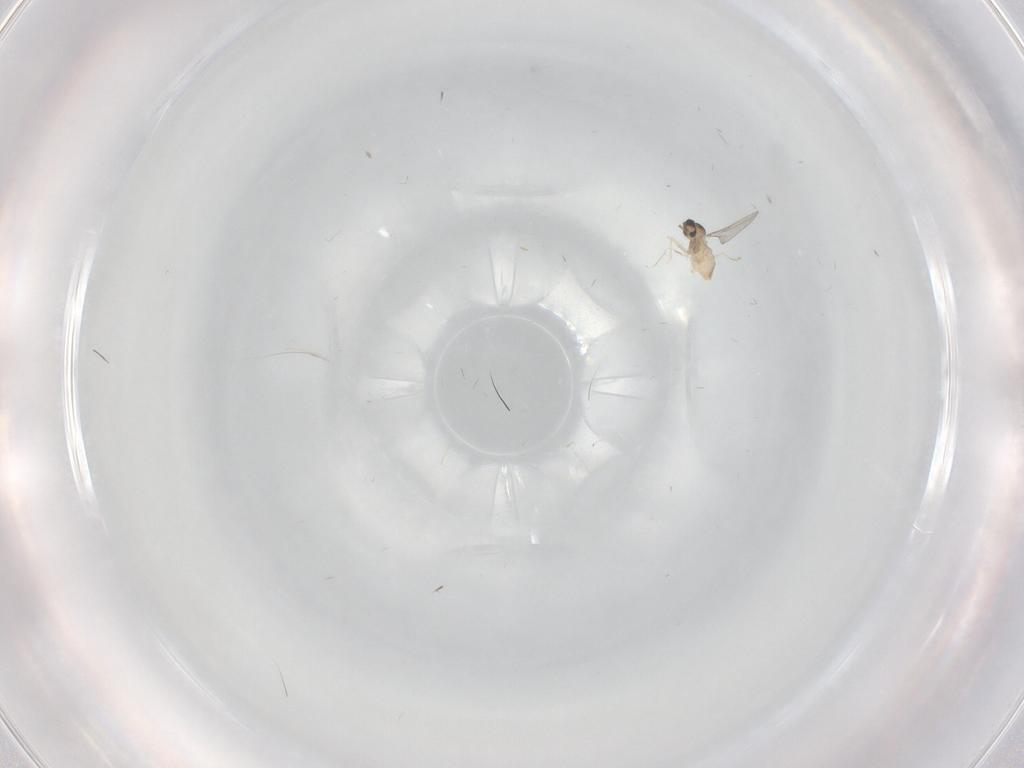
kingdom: Animalia
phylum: Arthropoda
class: Insecta
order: Diptera
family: Cecidomyiidae
